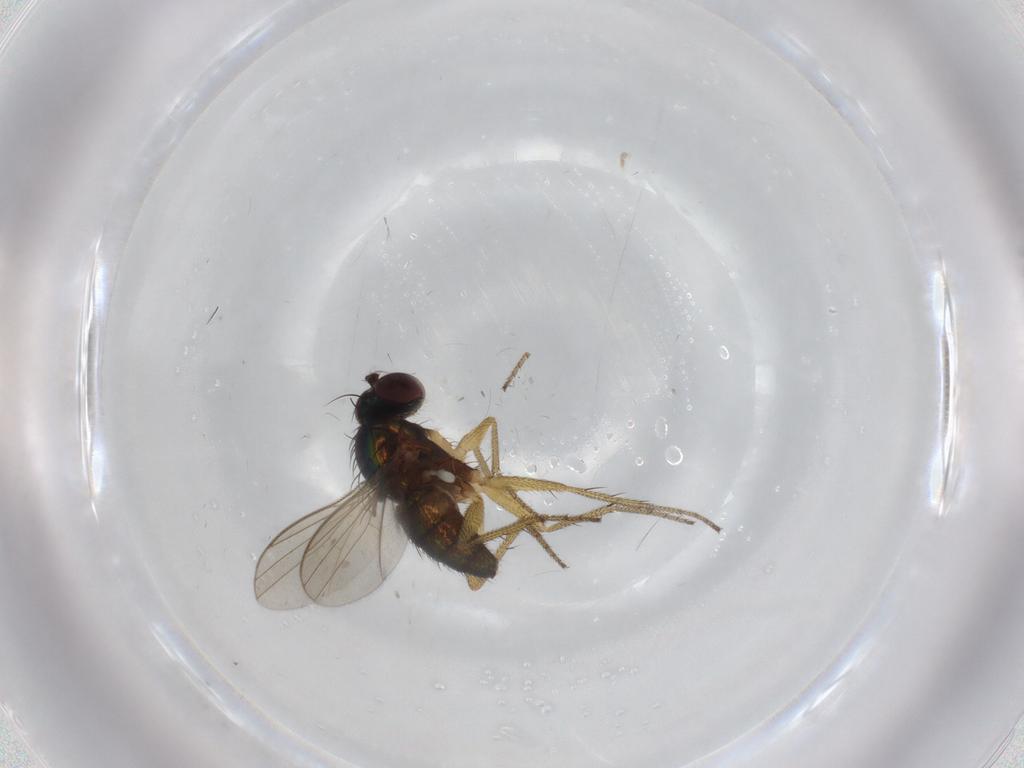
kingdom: Animalia
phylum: Arthropoda
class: Insecta
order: Diptera
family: Dolichopodidae
